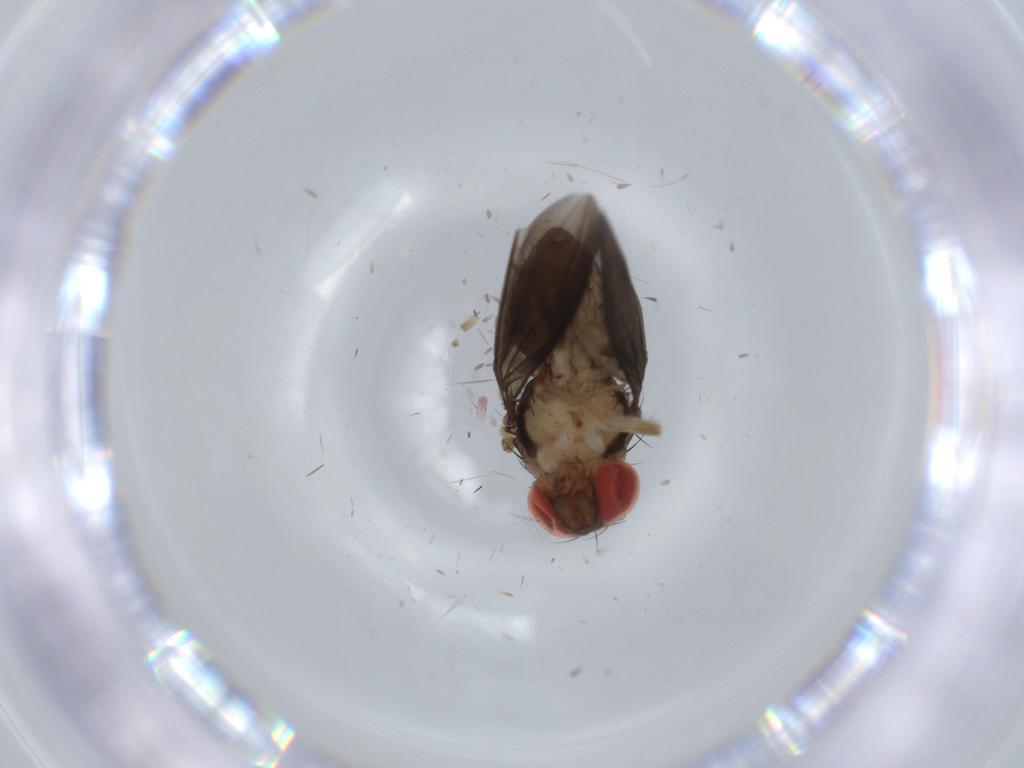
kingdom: Animalia
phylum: Arthropoda
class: Insecta
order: Diptera
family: Drosophilidae
